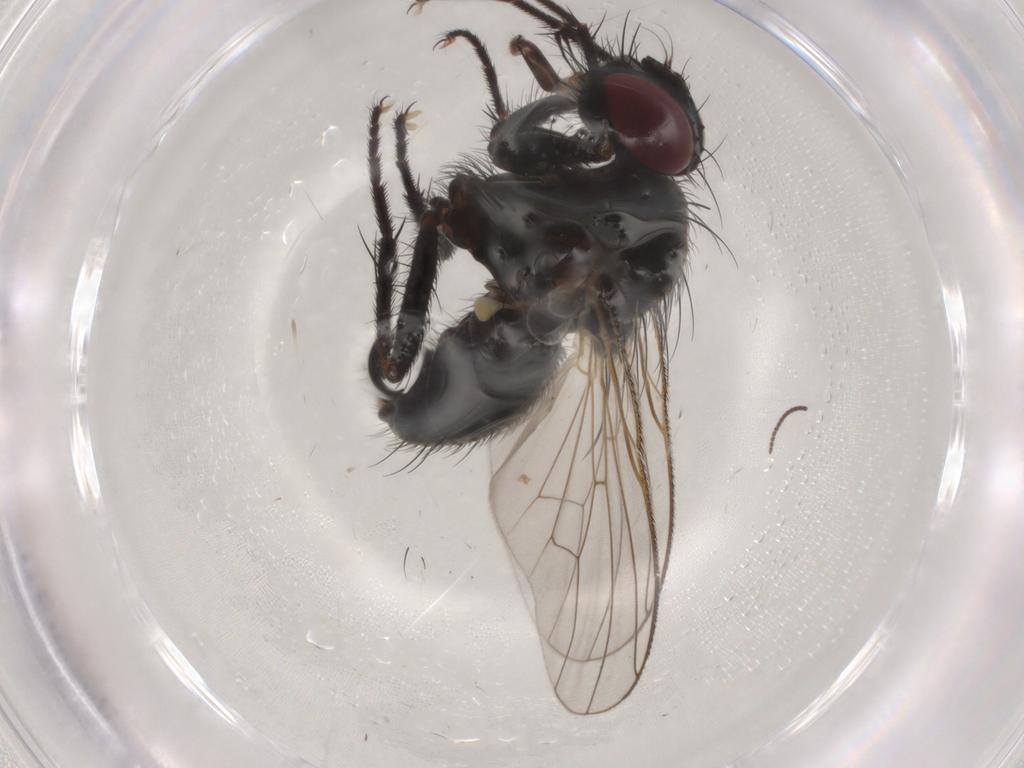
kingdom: Animalia
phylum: Arthropoda
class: Insecta
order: Diptera
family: Muscidae
